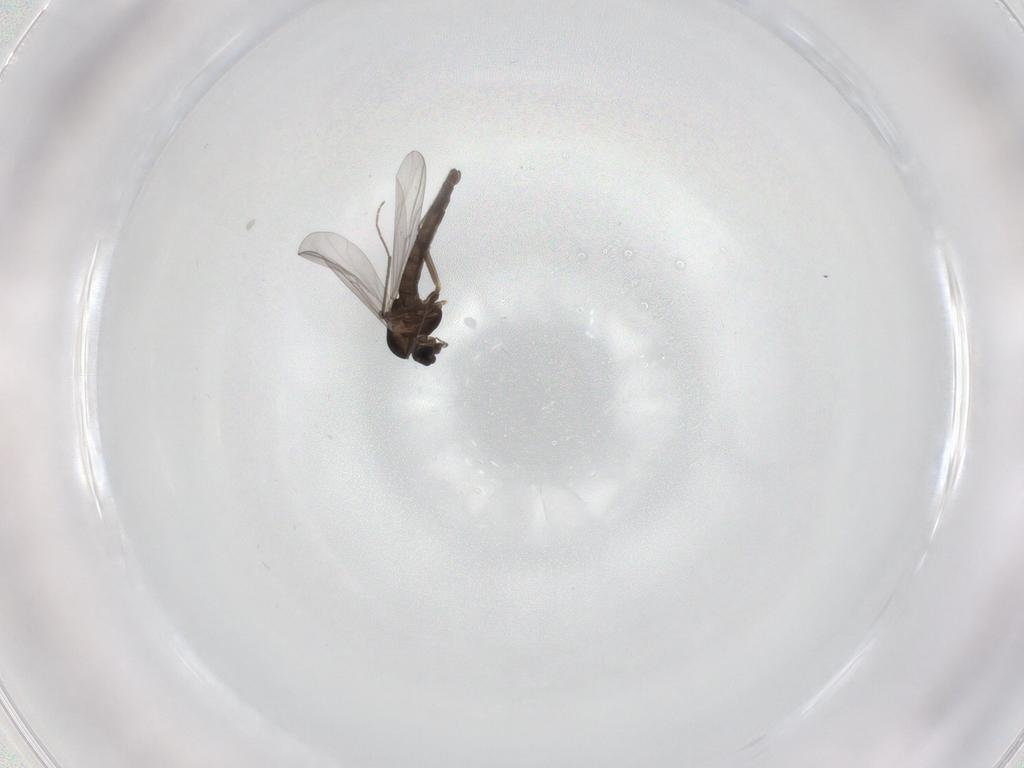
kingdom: Animalia
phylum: Arthropoda
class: Insecta
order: Diptera
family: Chironomidae
